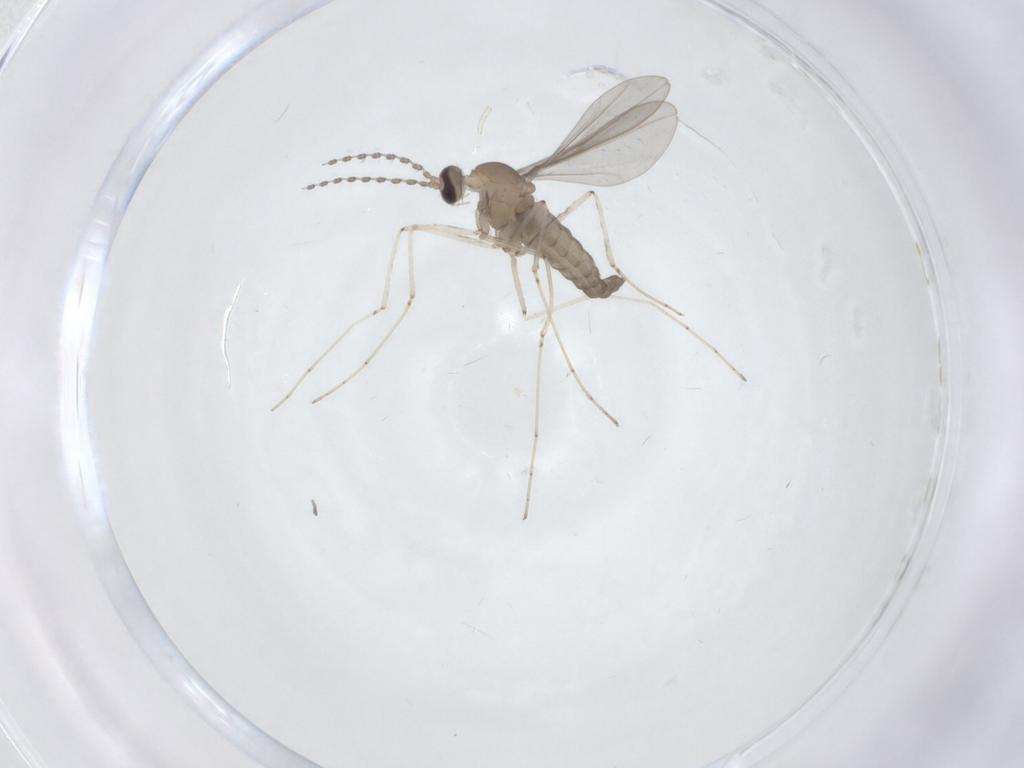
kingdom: Animalia
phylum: Arthropoda
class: Insecta
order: Diptera
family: Cecidomyiidae
